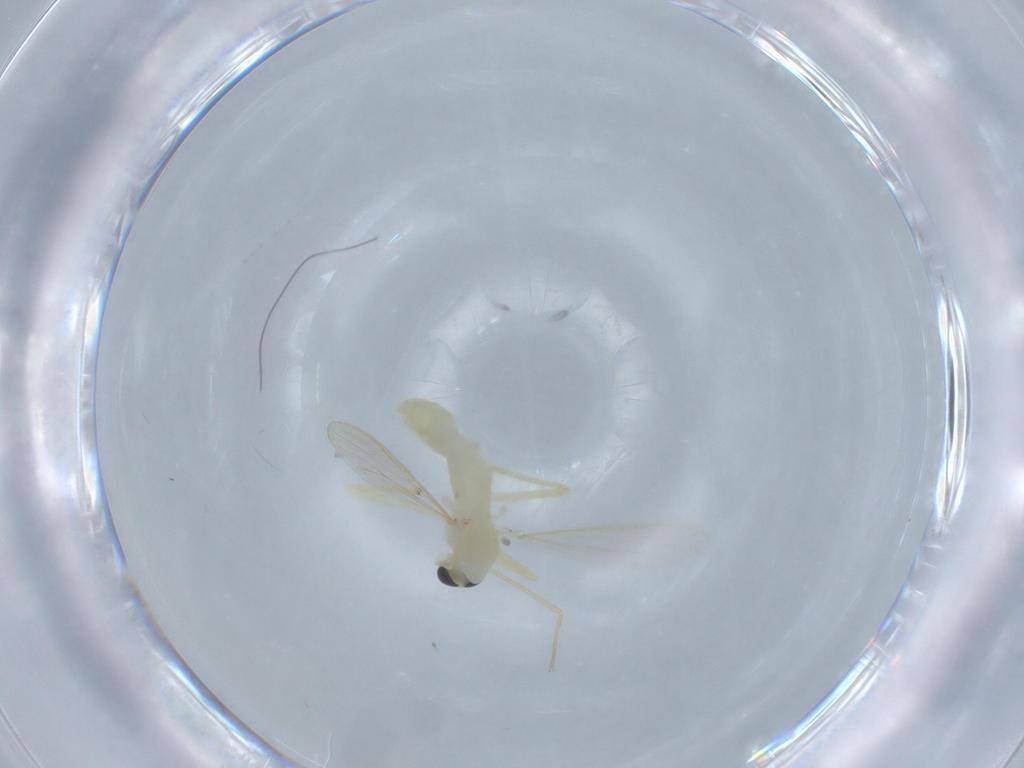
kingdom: Animalia
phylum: Arthropoda
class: Insecta
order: Diptera
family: Chironomidae
